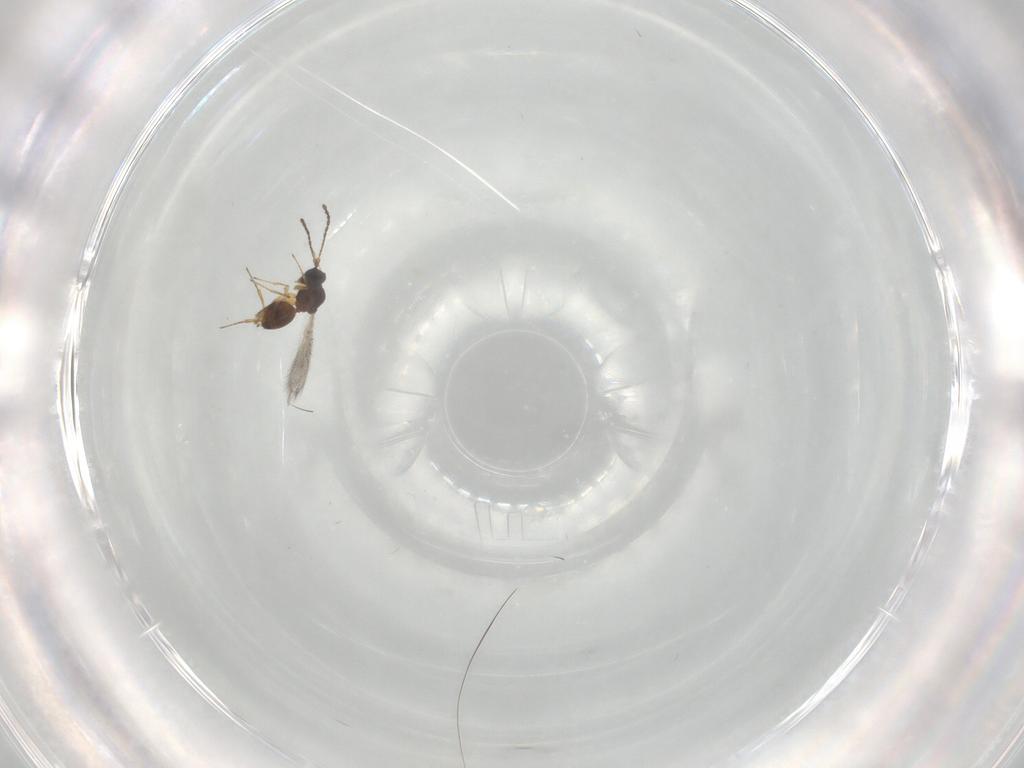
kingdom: Animalia
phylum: Arthropoda
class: Insecta
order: Hymenoptera
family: Figitidae
